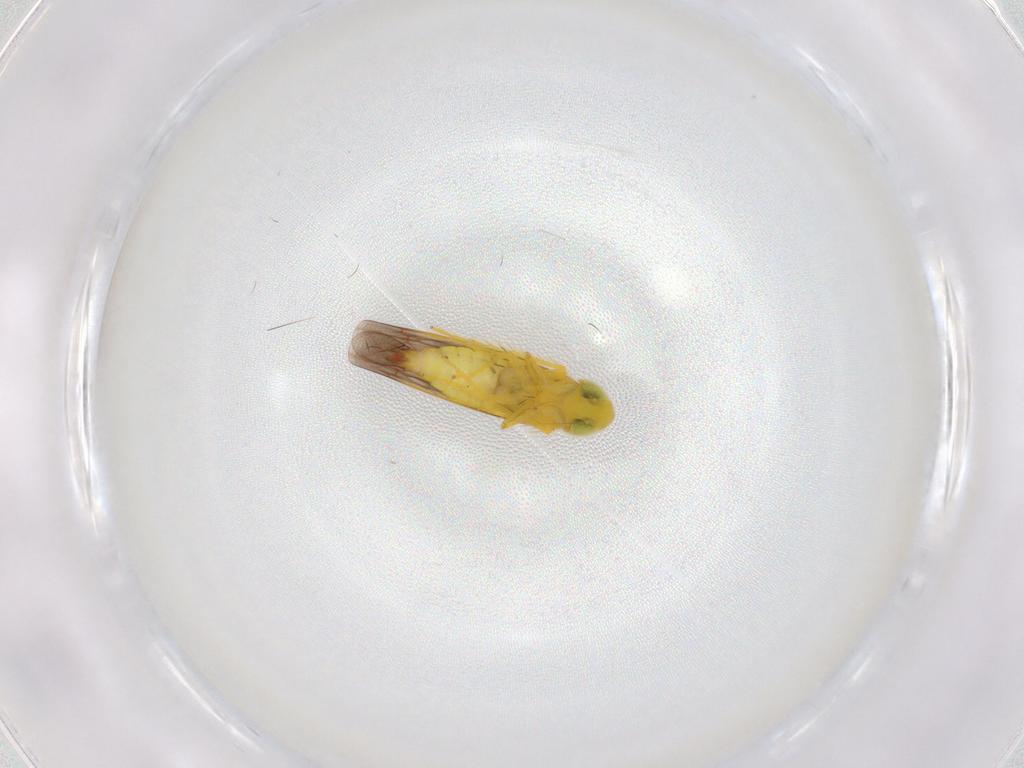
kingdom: Animalia
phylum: Arthropoda
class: Insecta
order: Hemiptera
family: Cicadellidae
